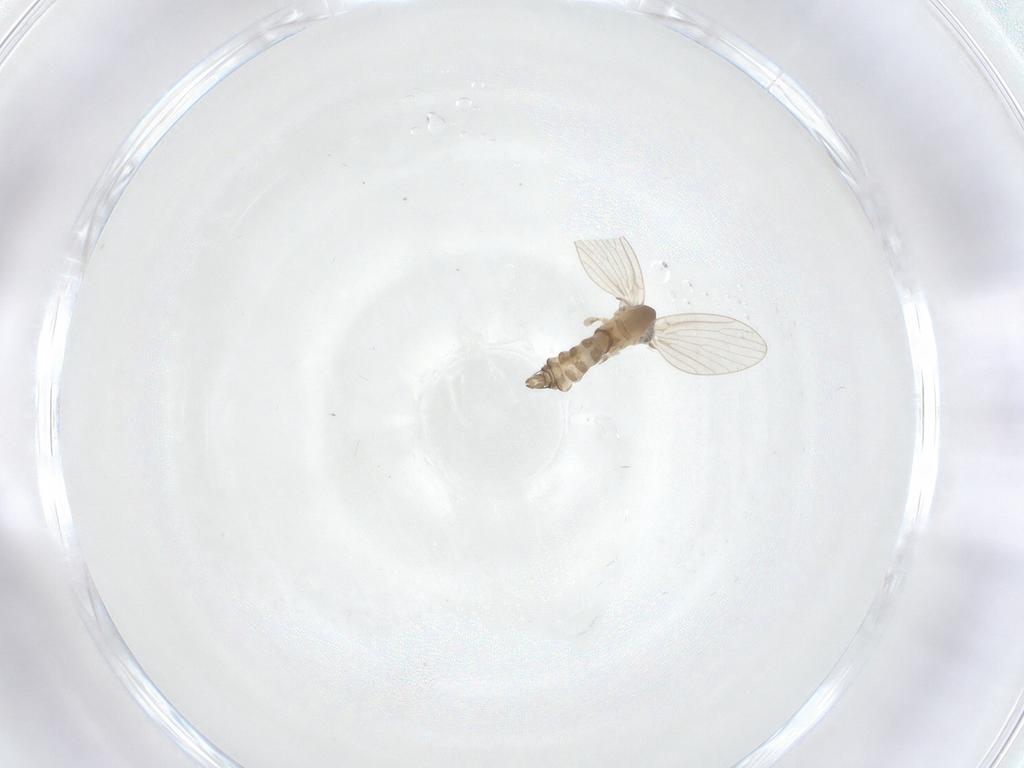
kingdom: Animalia
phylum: Arthropoda
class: Insecta
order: Diptera
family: Psychodidae
